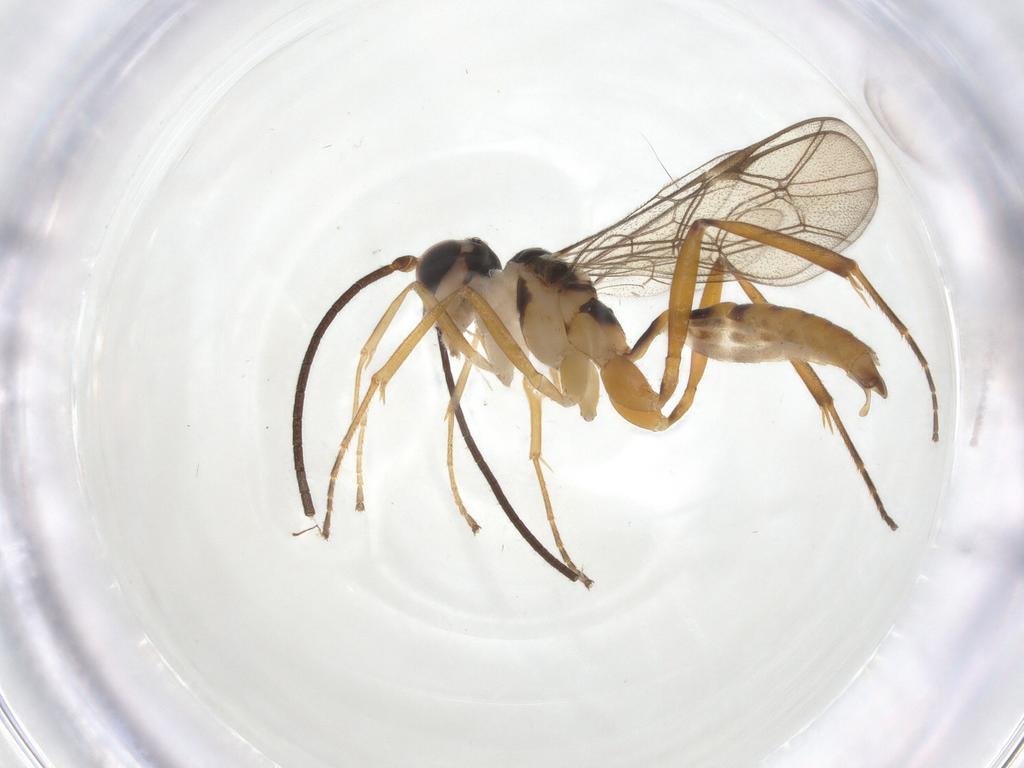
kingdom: Animalia
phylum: Arthropoda
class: Insecta
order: Hymenoptera
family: Ichneumonidae
